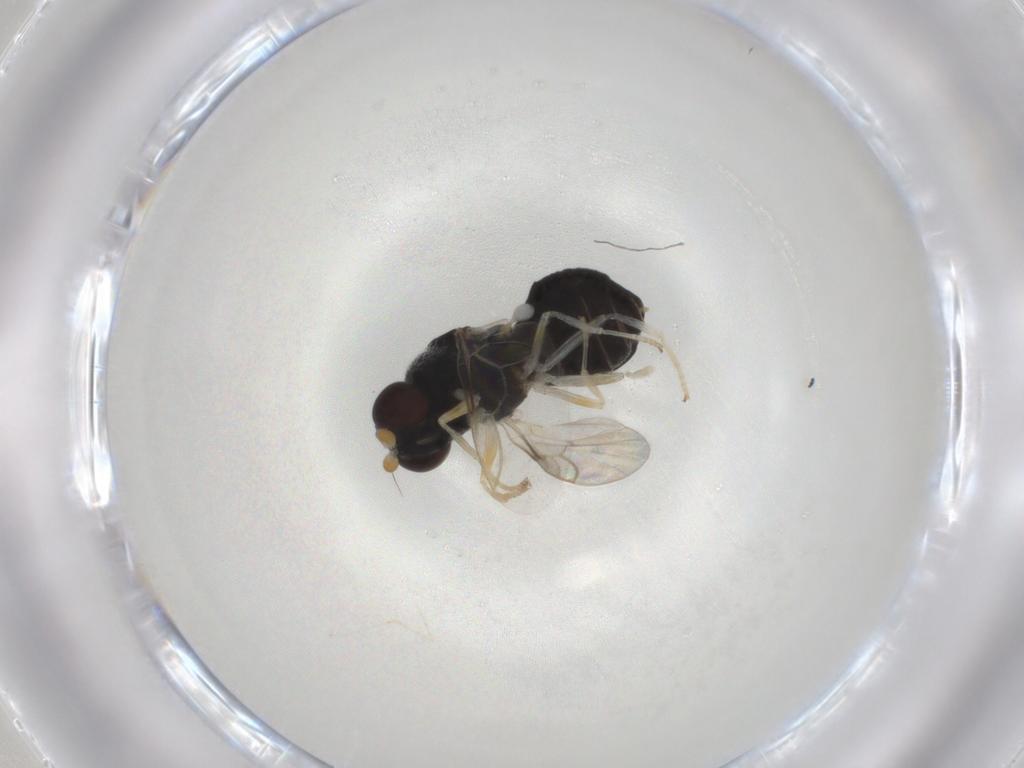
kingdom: Animalia
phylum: Arthropoda
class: Insecta
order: Diptera
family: Stratiomyidae
